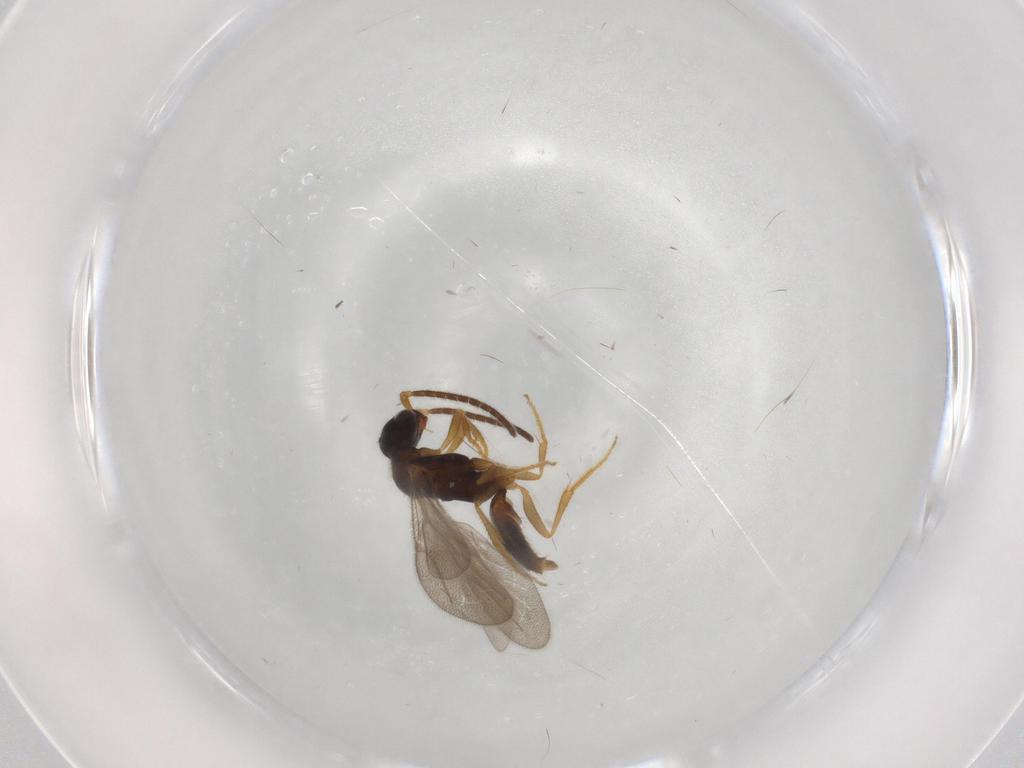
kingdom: Animalia
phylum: Arthropoda
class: Insecta
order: Hymenoptera
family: Bethylidae
